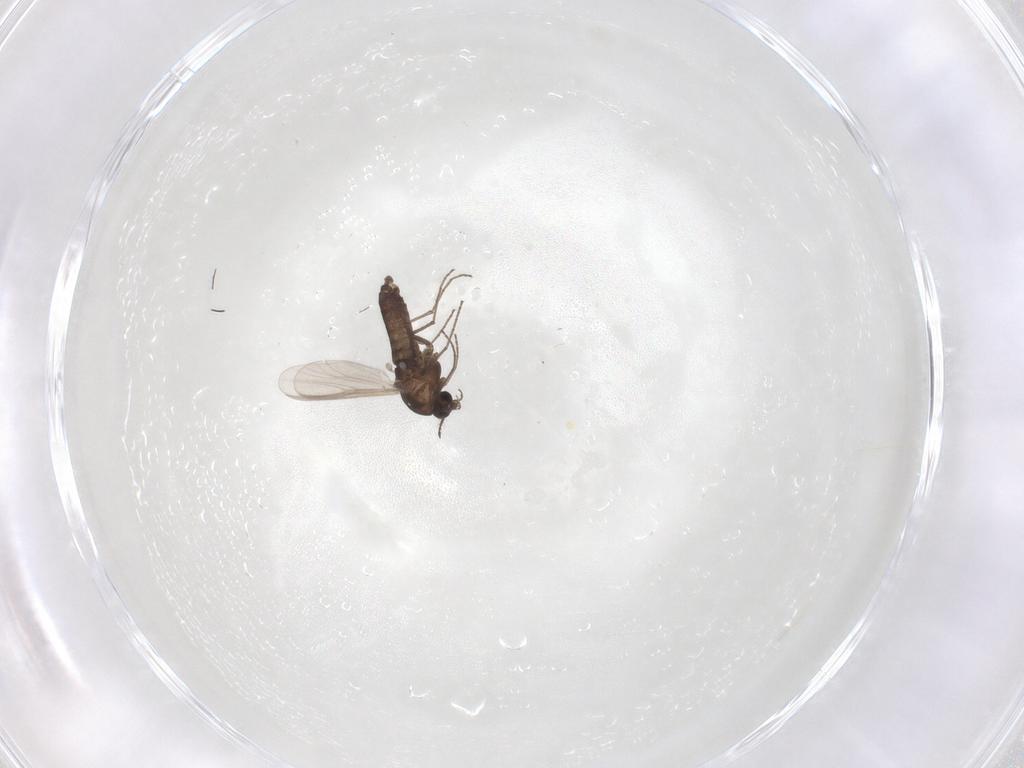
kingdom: Animalia
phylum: Arthropoda
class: Insecta
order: Diptera
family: Chironomidae
